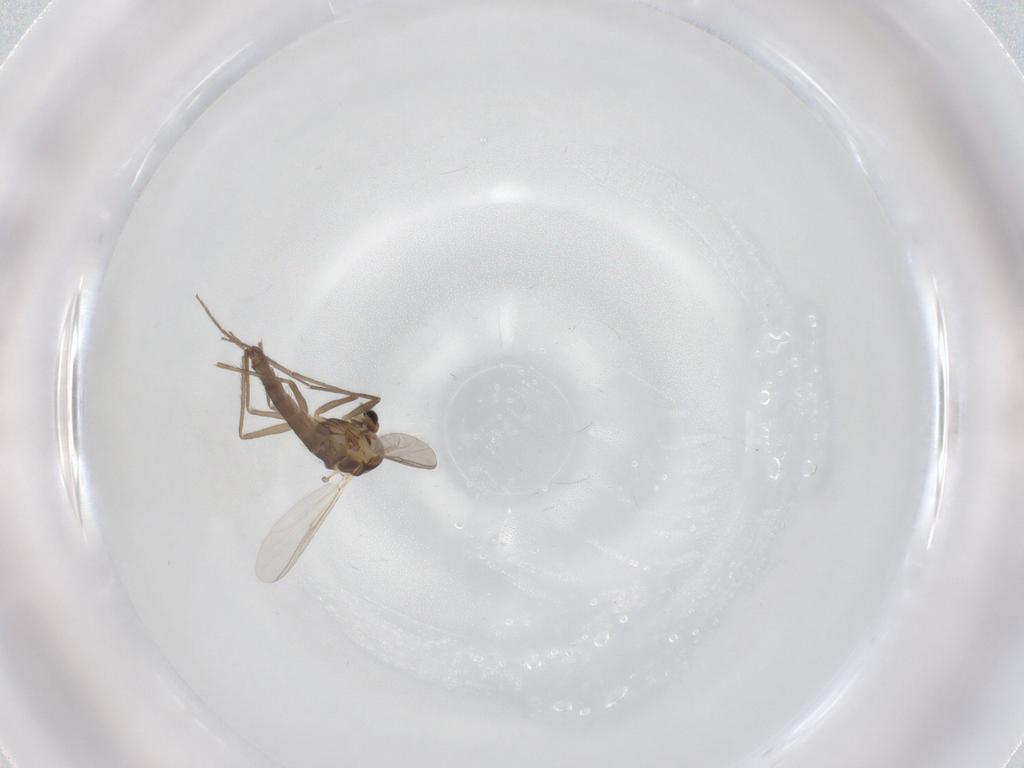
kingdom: Animalia
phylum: Arthropoda
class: Insecta
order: Diptera
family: Chironomidae
